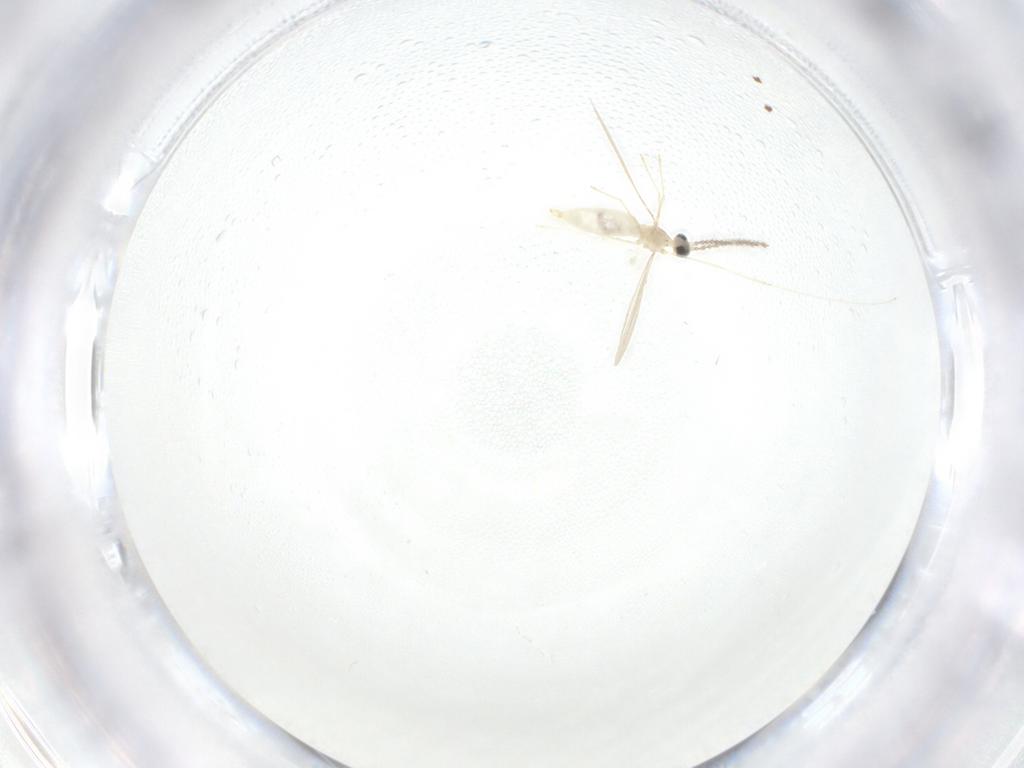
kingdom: Animalia
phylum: Arthropoda
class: Insecta
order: Diptera
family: Cecidomyiidae
